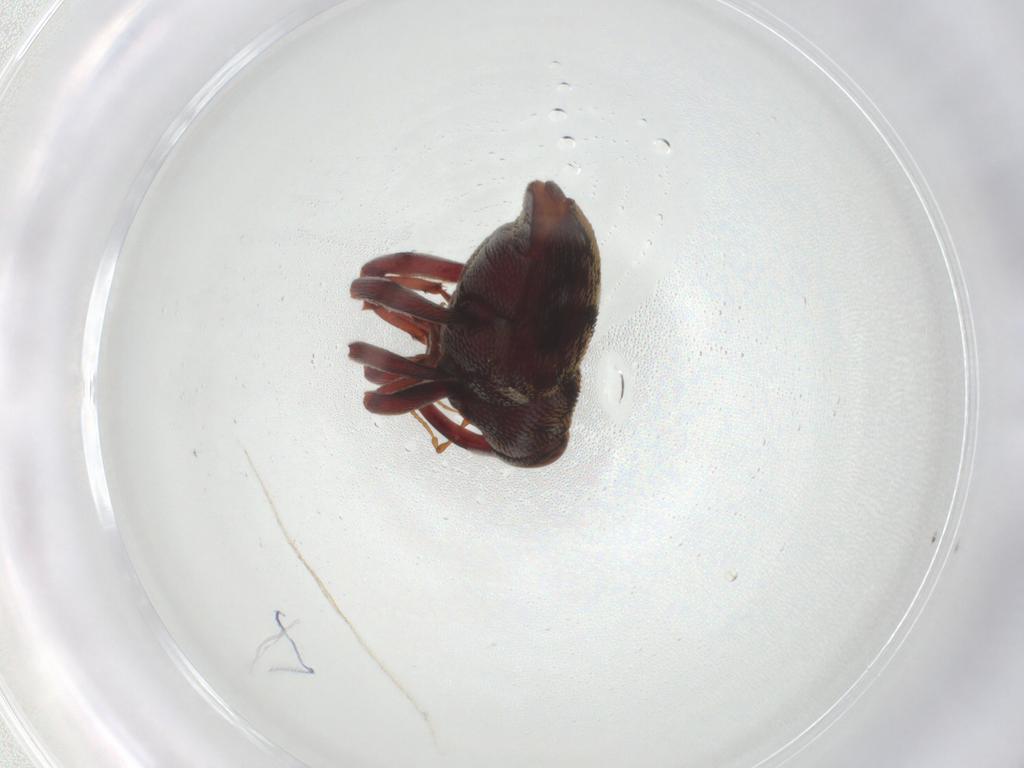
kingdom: Animalia
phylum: Arthropoda
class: Insecta
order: Coleoptera
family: Curculionidae
